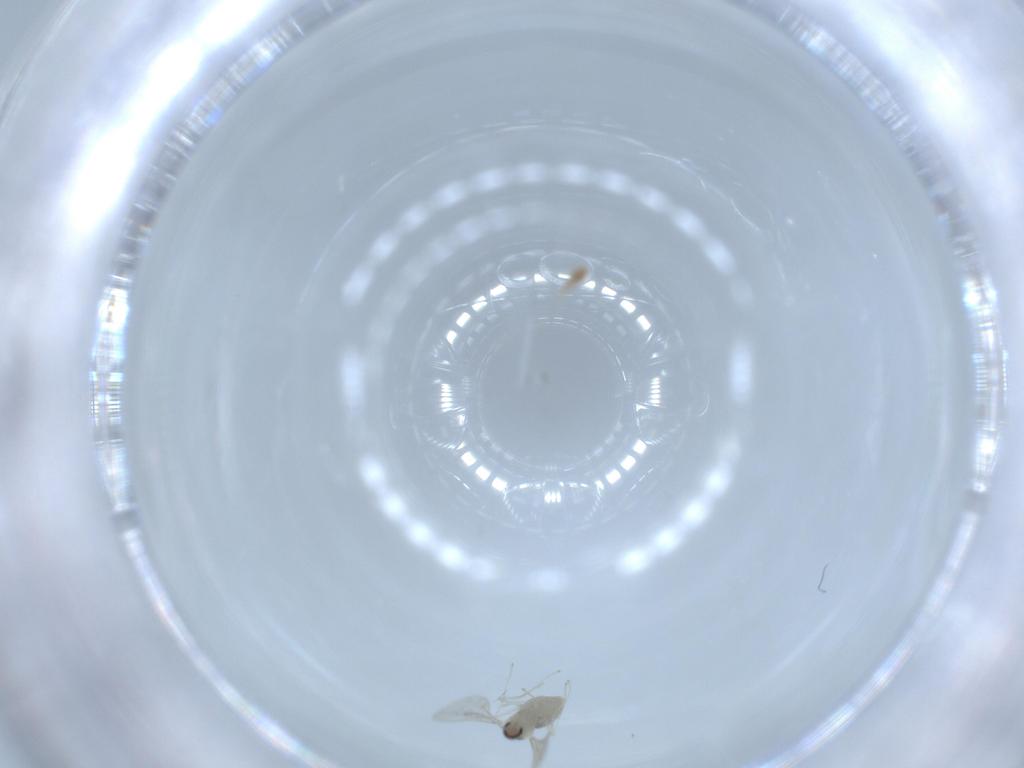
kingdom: Animalia
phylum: Arthropoda
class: Insecta
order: Diptera
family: Cecidomyiidae
